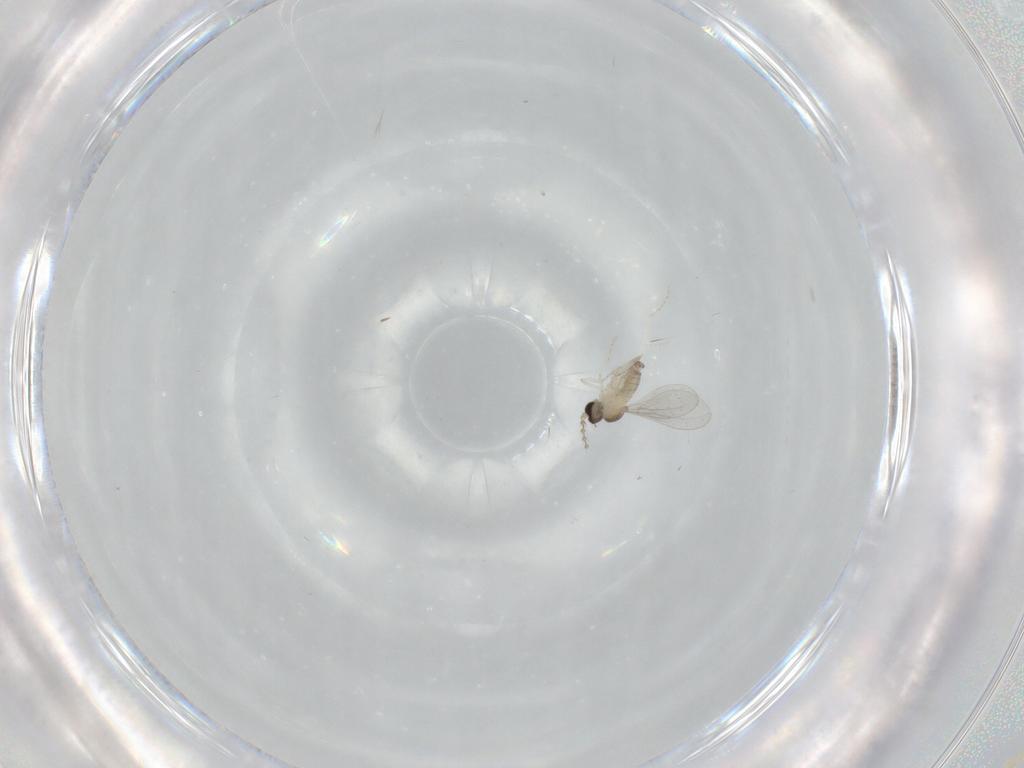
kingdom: Animalia
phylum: Arthropoda
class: Insecta
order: Diptera
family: Cecidomyiidae
